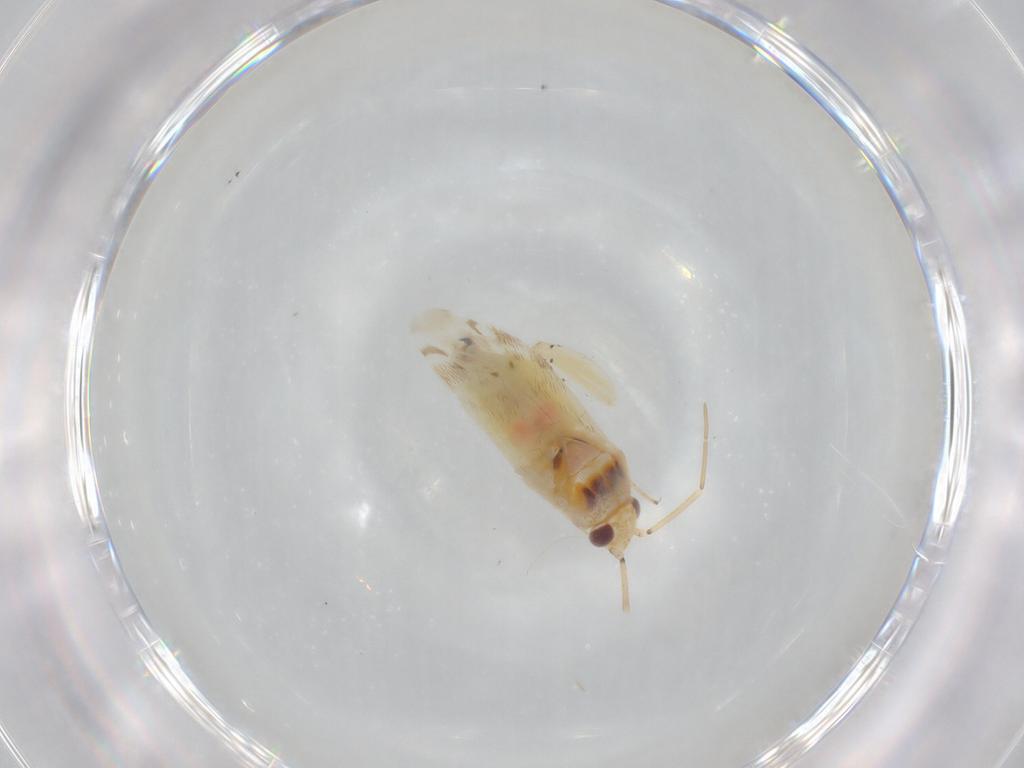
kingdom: Animalia
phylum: Arthropoda
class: Insecta
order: Hemiptera
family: Miridae
